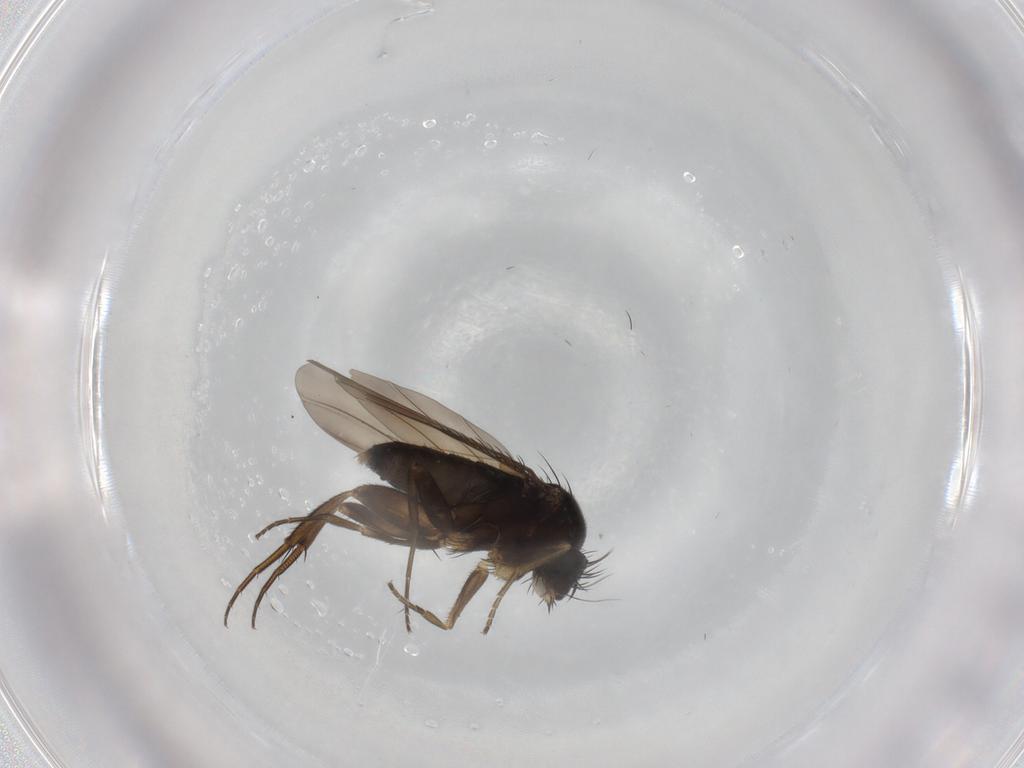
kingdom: Animalia
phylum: Arthropoda
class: Insecta
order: Diptera
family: Phoridae
